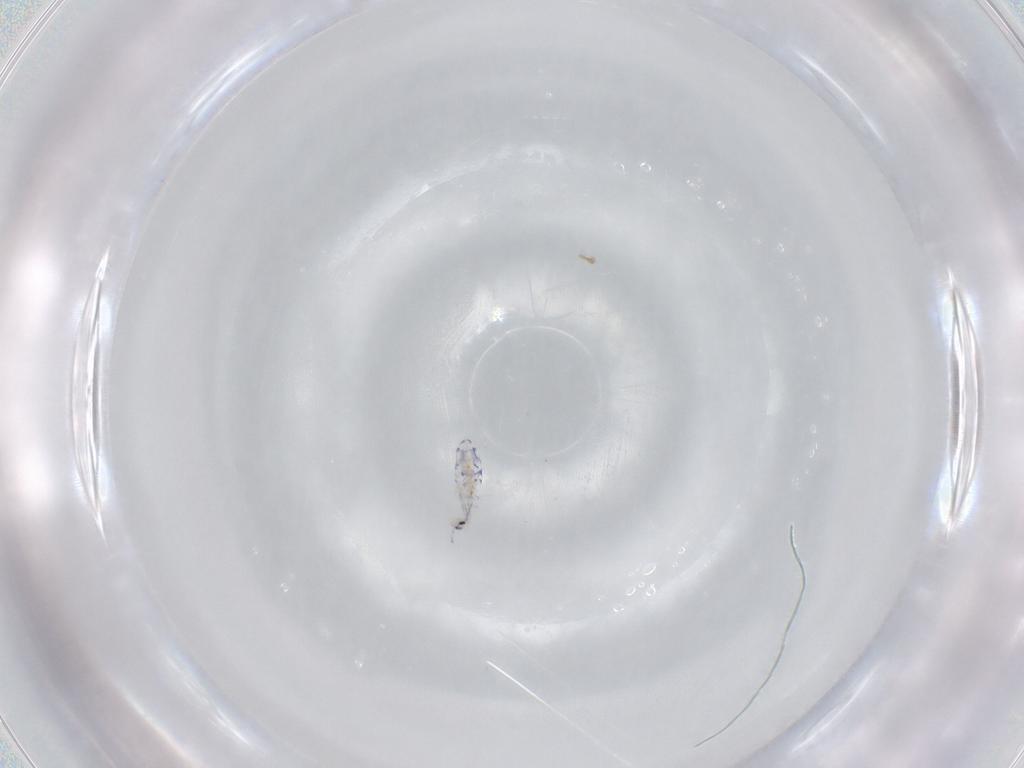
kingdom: Animalia
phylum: Arthropoda
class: Collembola
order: Entomobryomorpha
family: Entomobryidae
